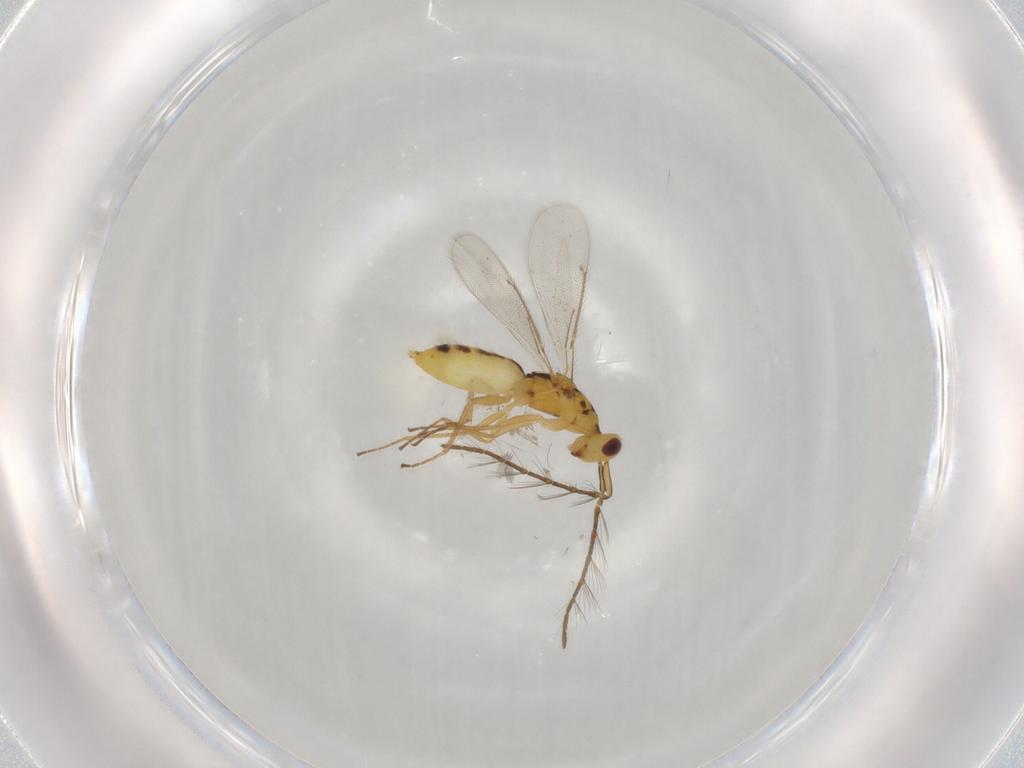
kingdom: Animalia
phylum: Arthropoda
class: Insecta
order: Hymenoptera
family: Eulophidae
